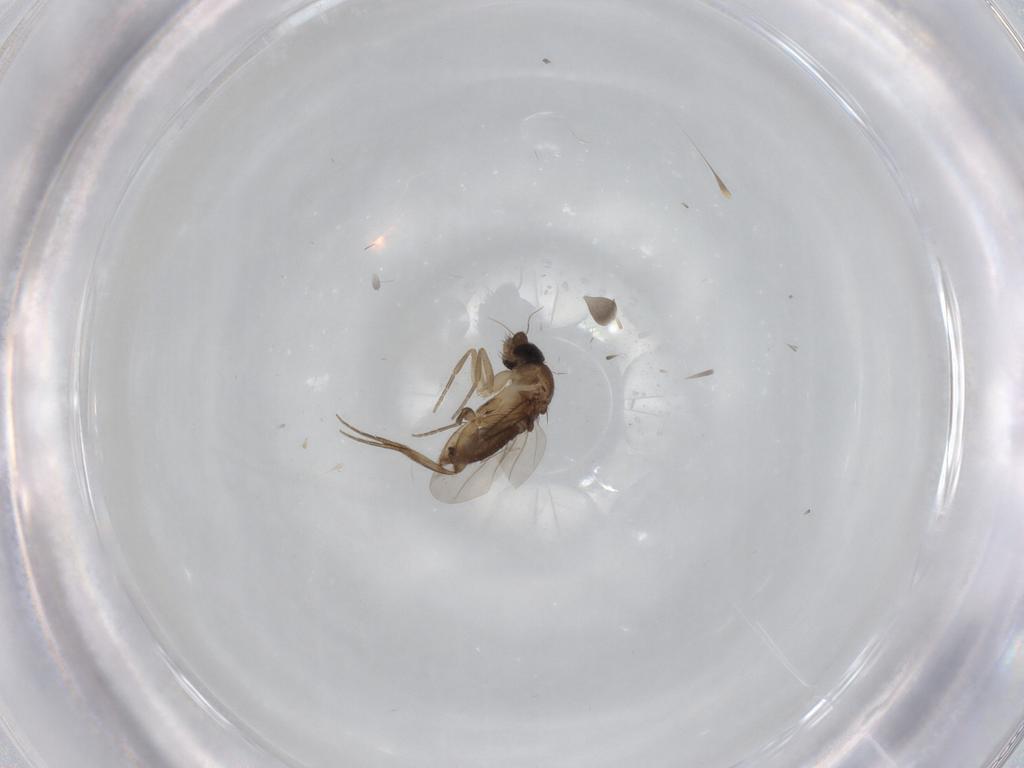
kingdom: Animalia
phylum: Arthropoda
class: Insecta
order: Diptera
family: Phoridae
